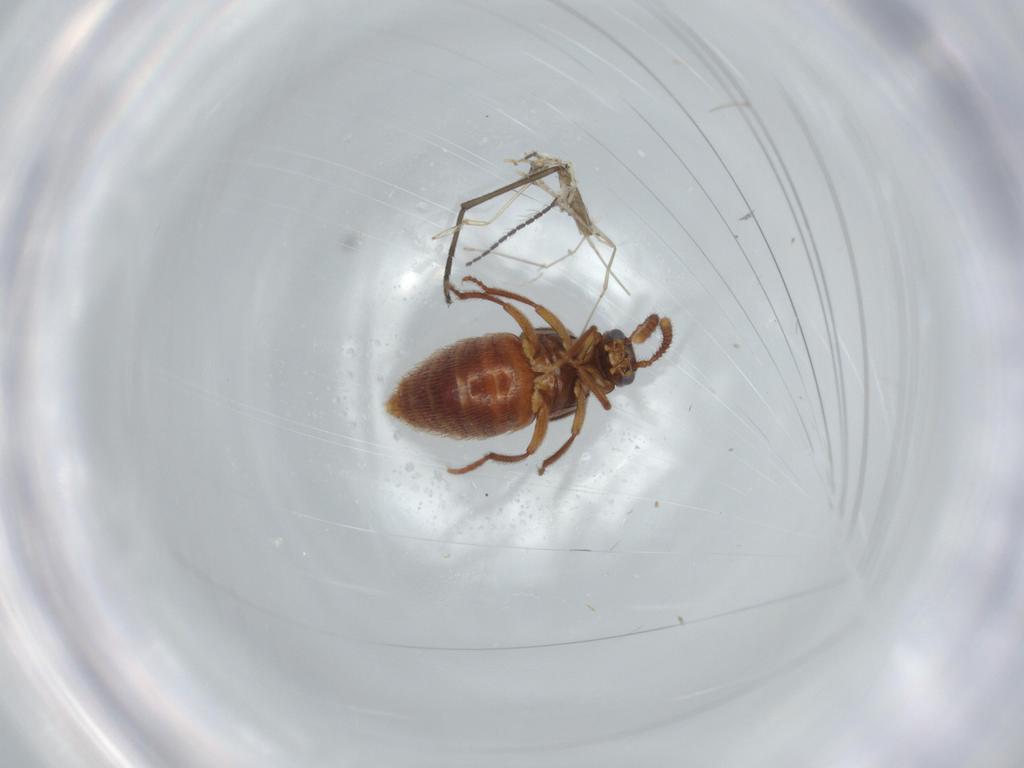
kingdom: Animalia
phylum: Arthropoda
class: Insecta
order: Coleoptera
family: Staphylinidae
